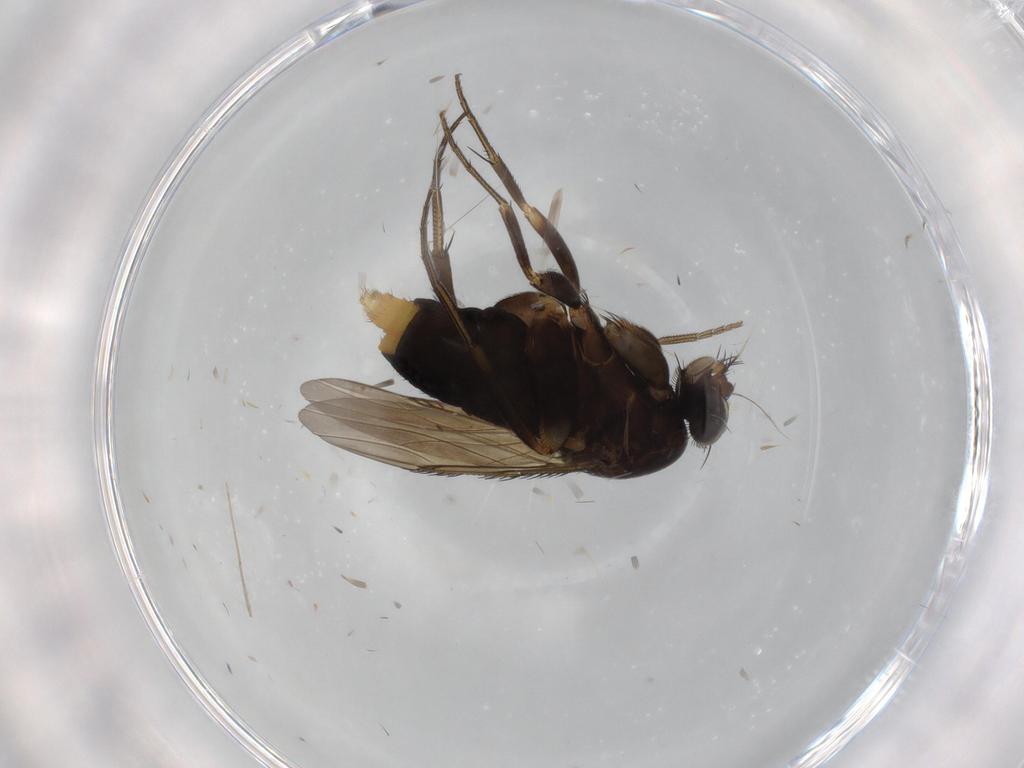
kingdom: Animalia
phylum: Arthropoda
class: Insecta
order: Diptera
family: Phoridae
